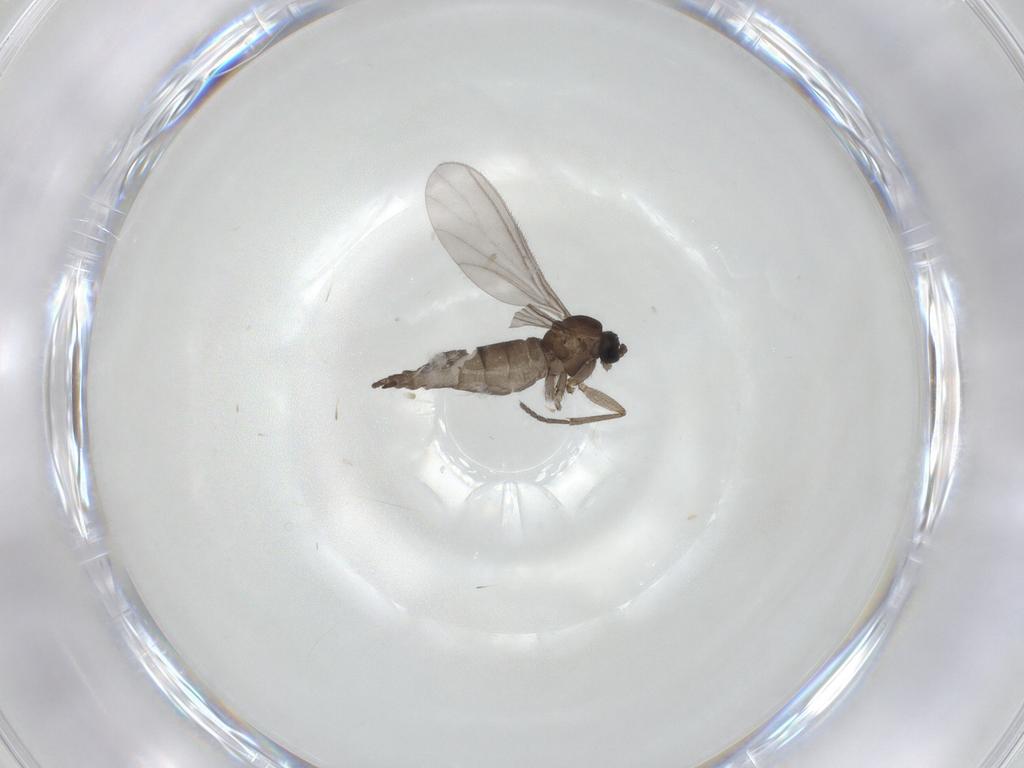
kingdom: Animalia
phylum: Arthropoda
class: Insecta
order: Diptera
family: Sciaridae
